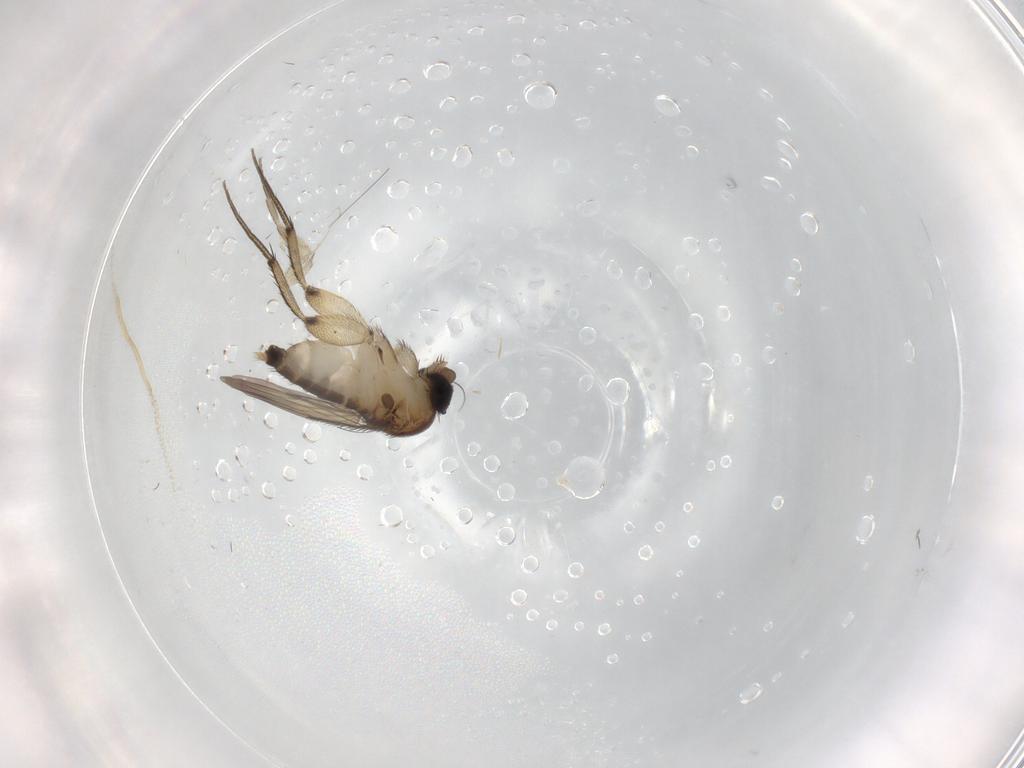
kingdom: Animalia
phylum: Arthropoda
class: Insecta
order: Diptera
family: Phoridae
